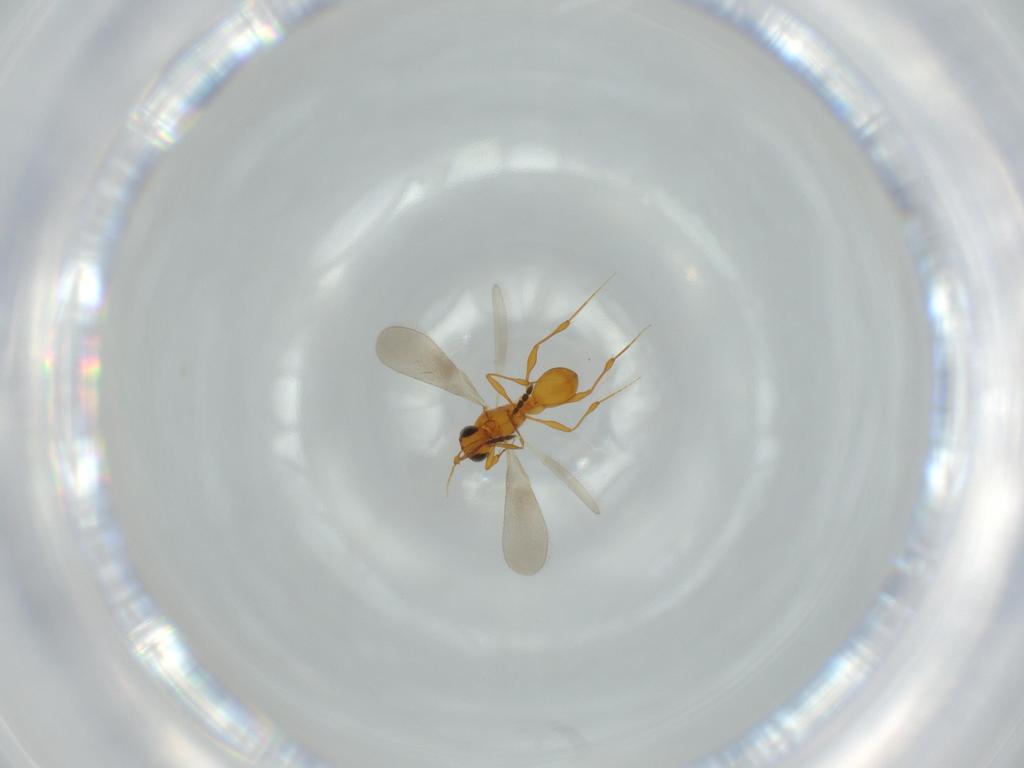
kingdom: Animalia
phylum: Arthropoda
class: Insecta
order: Hymenoptera
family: Platygastridae
